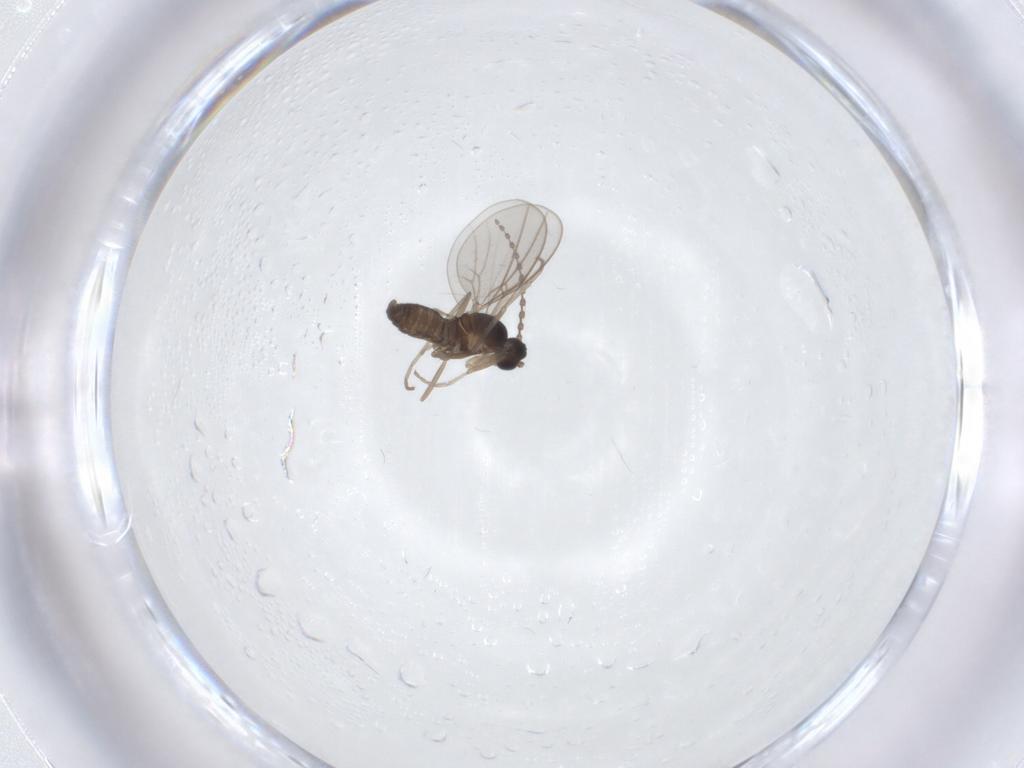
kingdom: Animalia
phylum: Arthropoda
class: Insecta
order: Diptera
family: Cecidomyiidae
